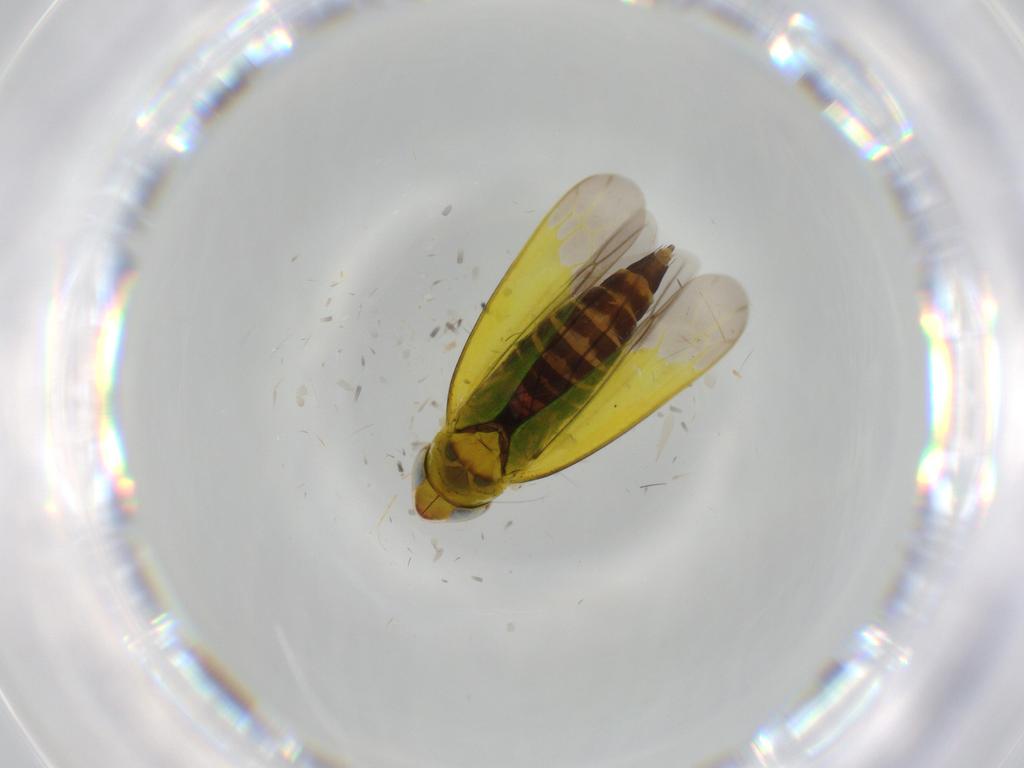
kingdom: Animalia
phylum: Arthropoda
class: Insecta
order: Hemiptera
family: Cicadellidae
